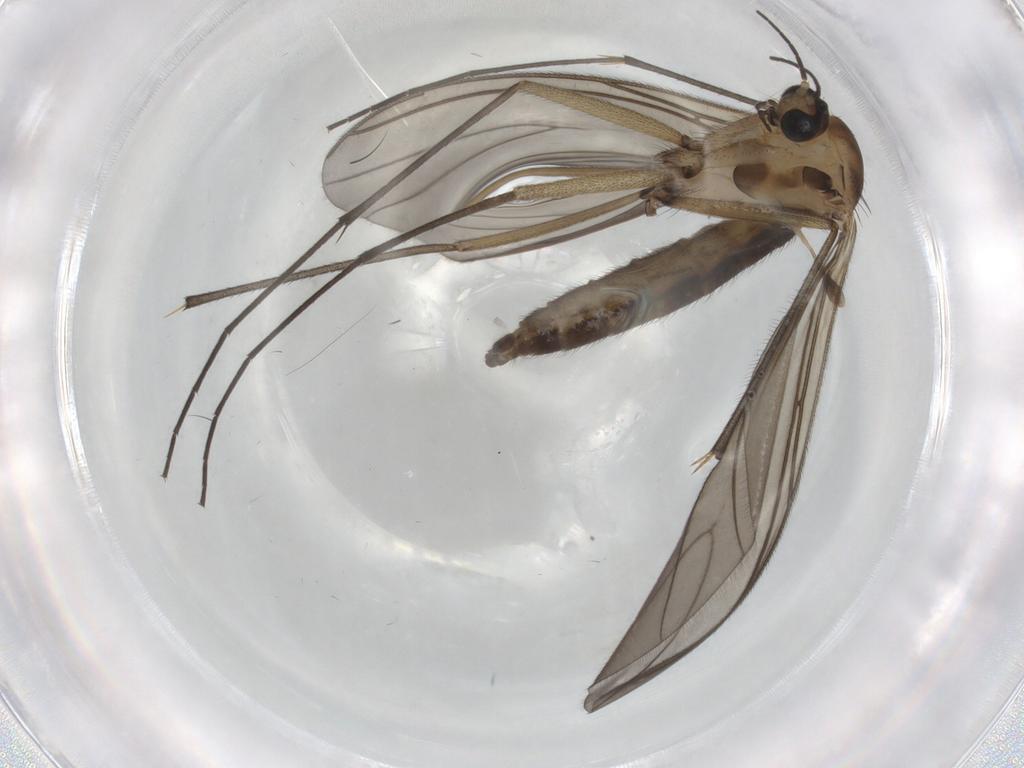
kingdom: Animalia
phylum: Arthropoda
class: Insecta
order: Diptera
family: Sciaridae
